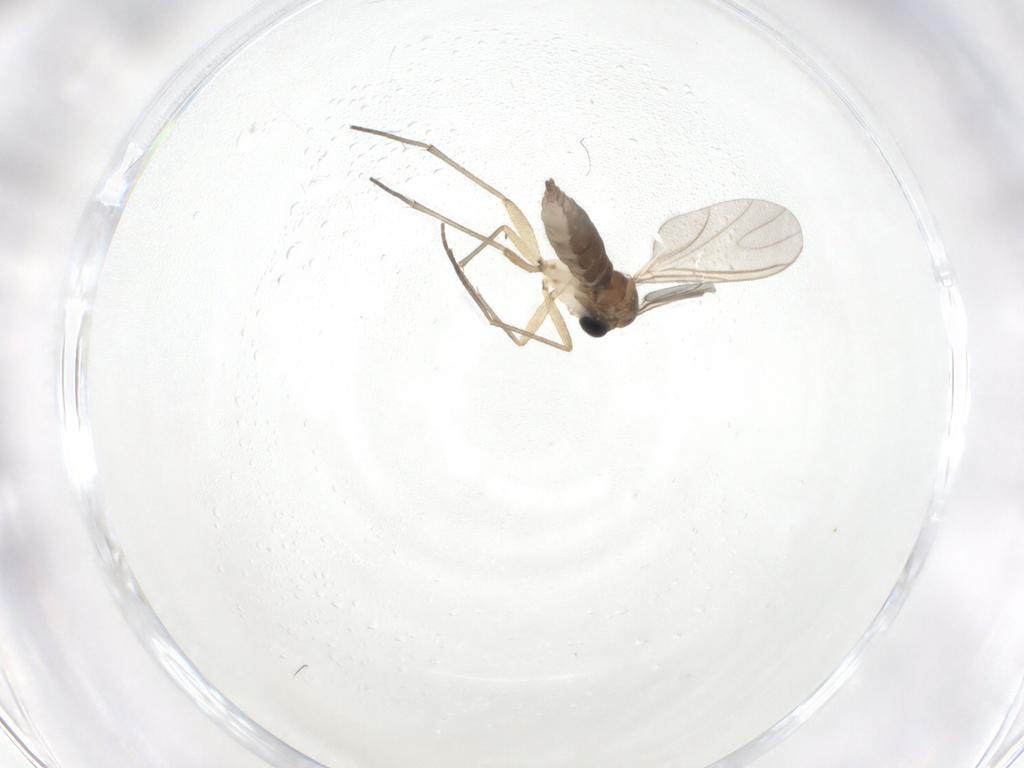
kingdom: Animalia
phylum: Arthropoda
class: Insecta
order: Diptera
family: Sciaridae
